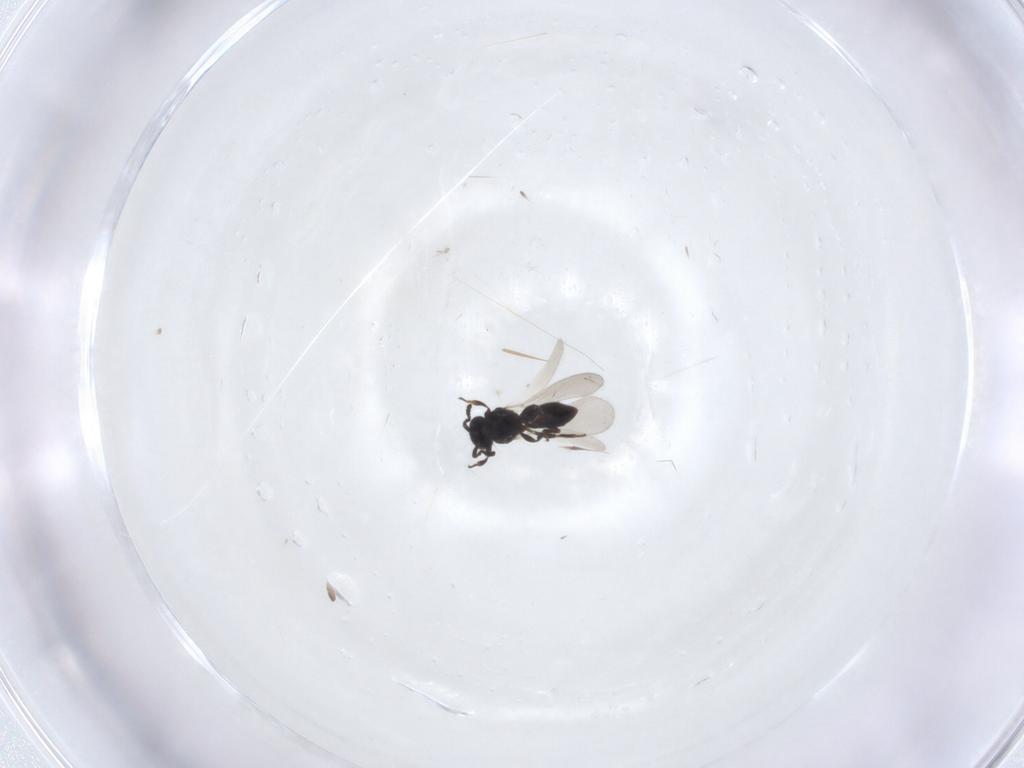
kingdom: Animalia
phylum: Arthropoda
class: Insecta
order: Hymenoptera
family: Platygastridae
